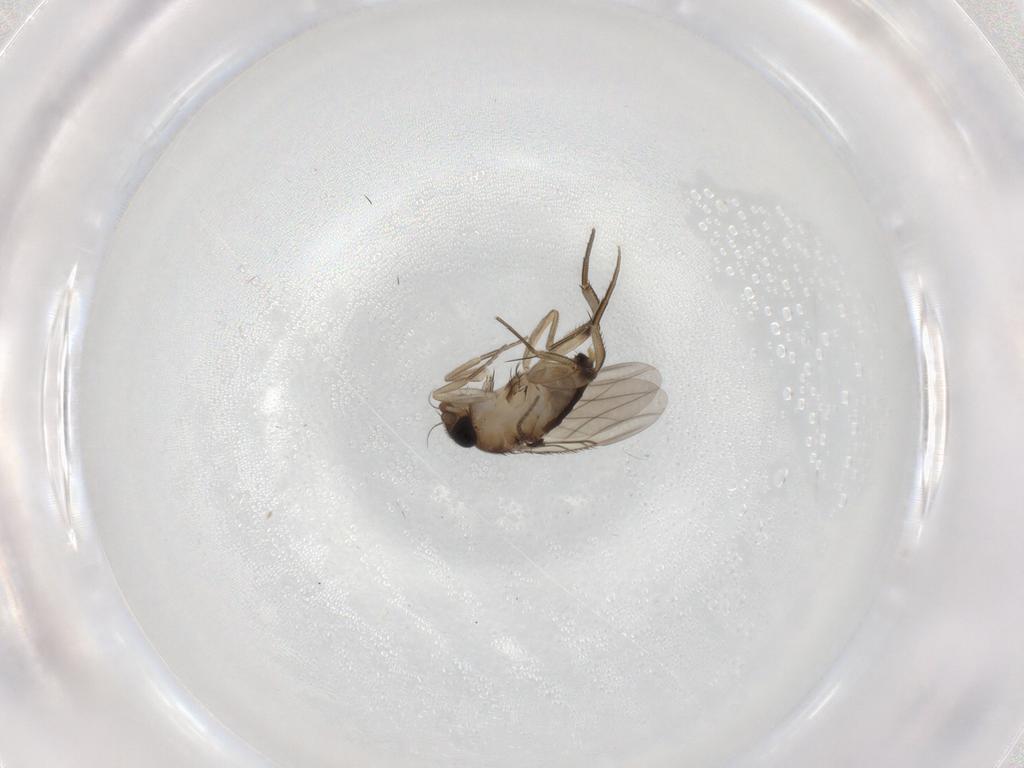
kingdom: Animalia
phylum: Arthropoda
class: Insecta
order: Diptera
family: Phoridae
